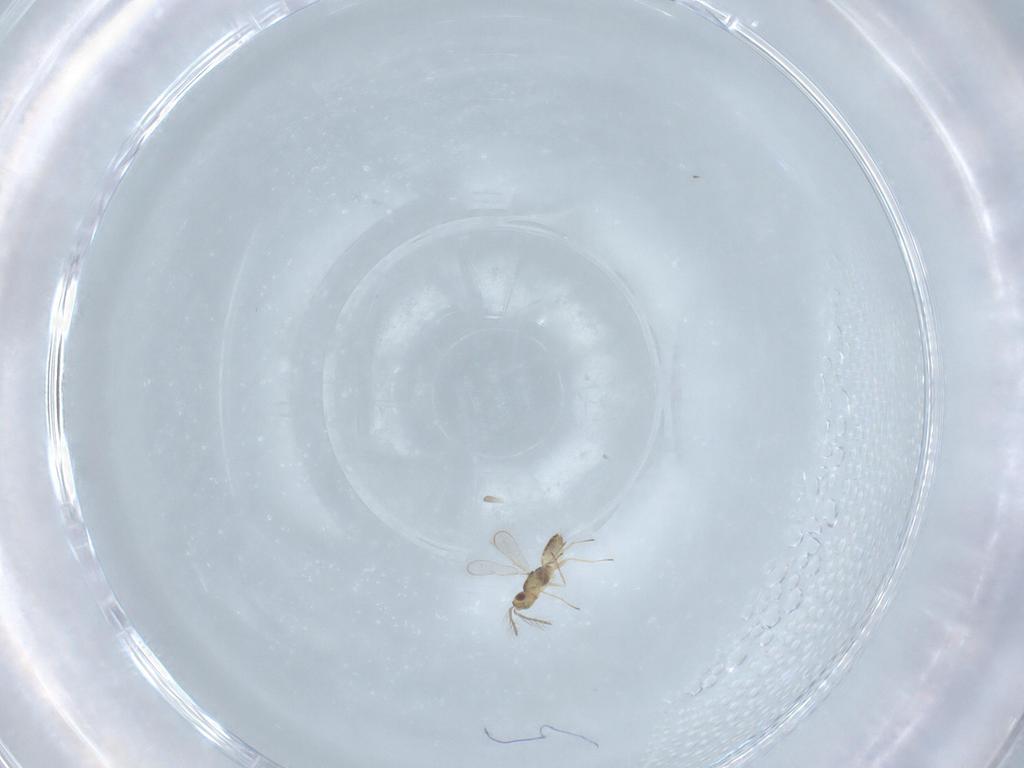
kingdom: Animalia
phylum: Arthropoda
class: Insecta
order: Hymenoptera
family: Eulophidae
